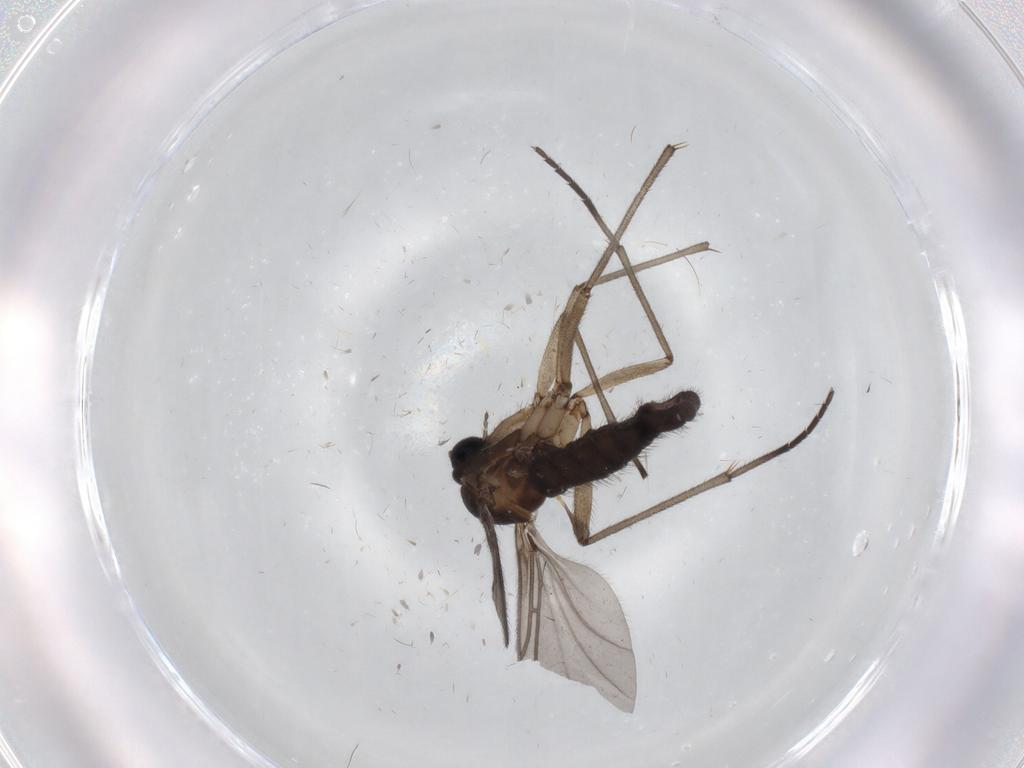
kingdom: Animalia
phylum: Arthropoda
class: Insecta
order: Diptera
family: Sciaridae
